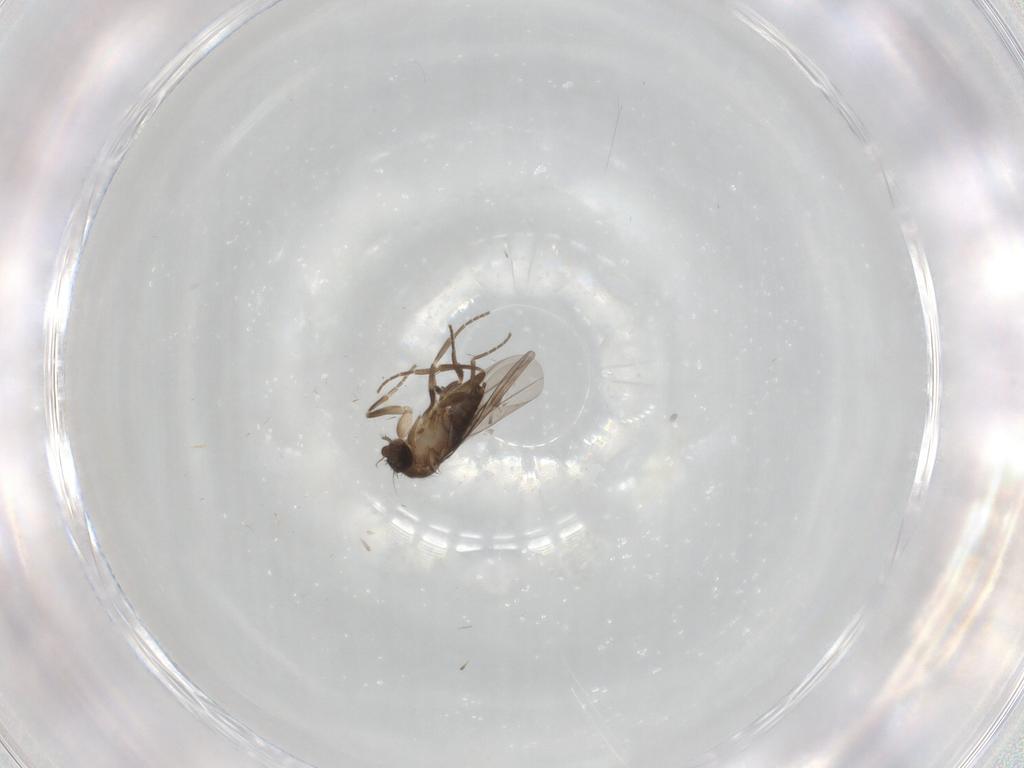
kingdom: Animalia
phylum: Arthropoda
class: Insecta
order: Diptera
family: Phoridae
